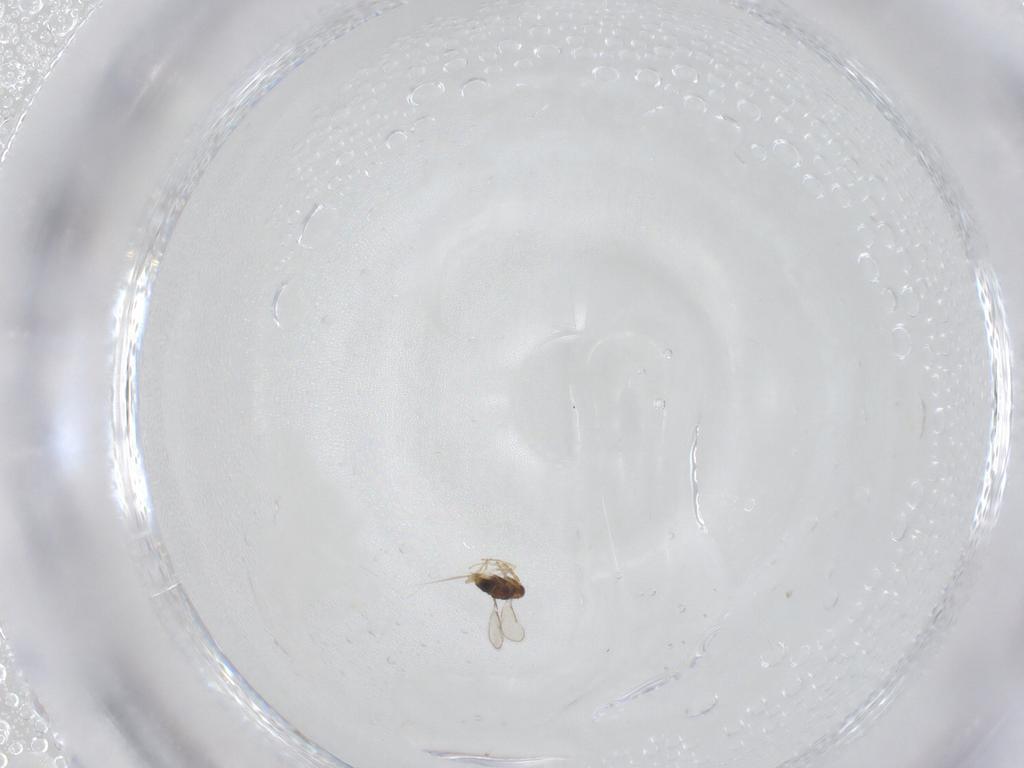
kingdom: Animalia
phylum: Arthropoda
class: Insecta
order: Hymenoptera
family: Aphelinidae
